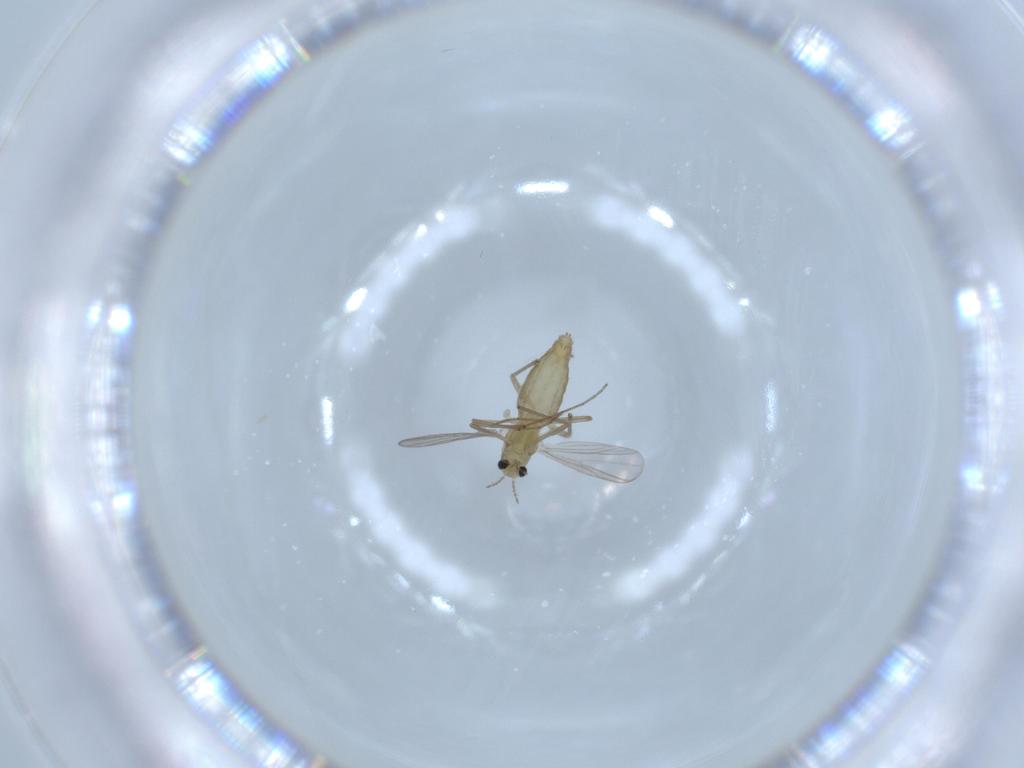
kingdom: Animalia
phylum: Arthropoda
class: Insecta
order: Diptera
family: Chironomidae
